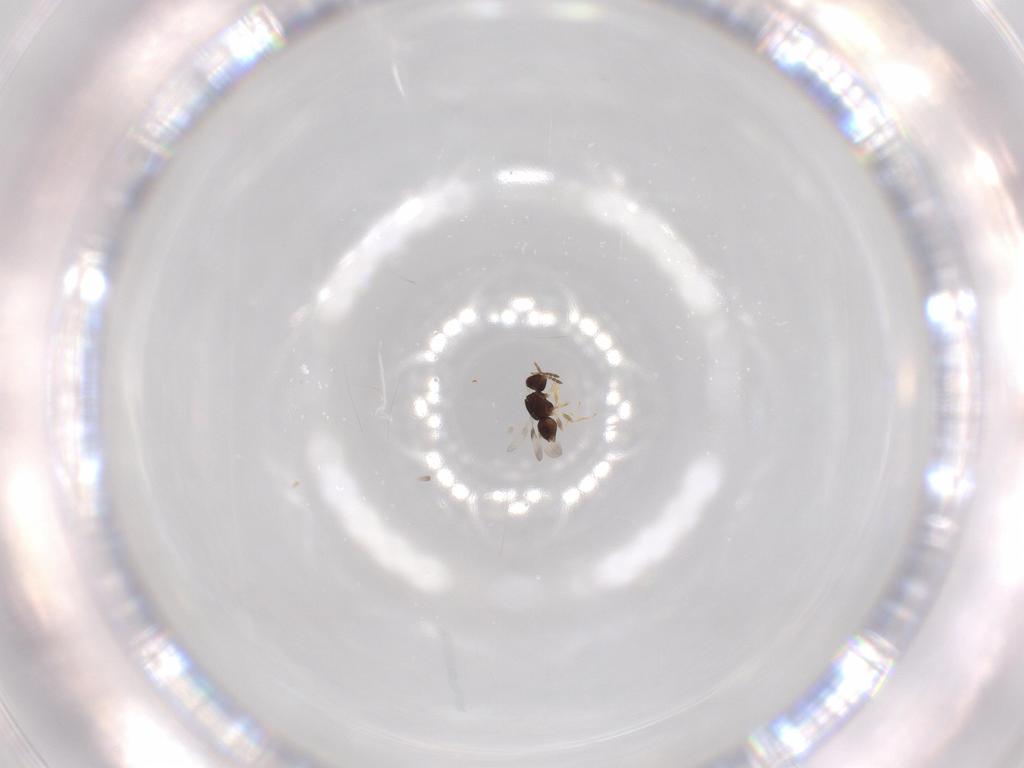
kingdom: Animalia
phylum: Arthropoda
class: Insecta
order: Hymenoptera
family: Ceraphronidae
